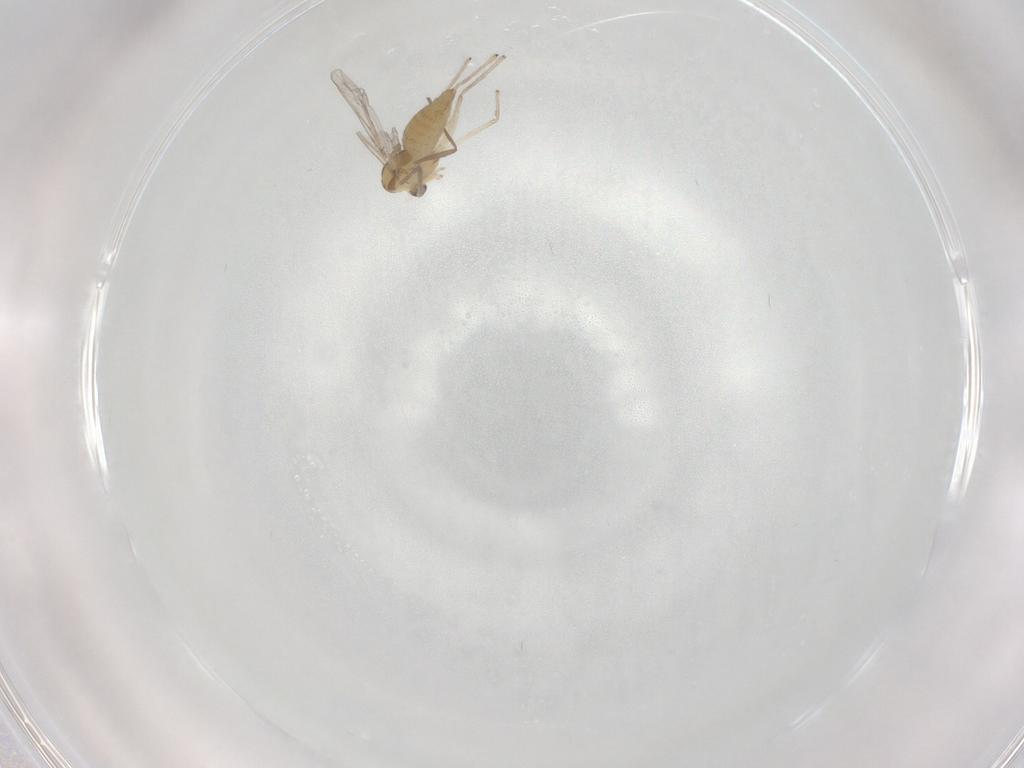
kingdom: Animalia
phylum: Arthropoda
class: Insecta
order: Diptera
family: Chironomidae
